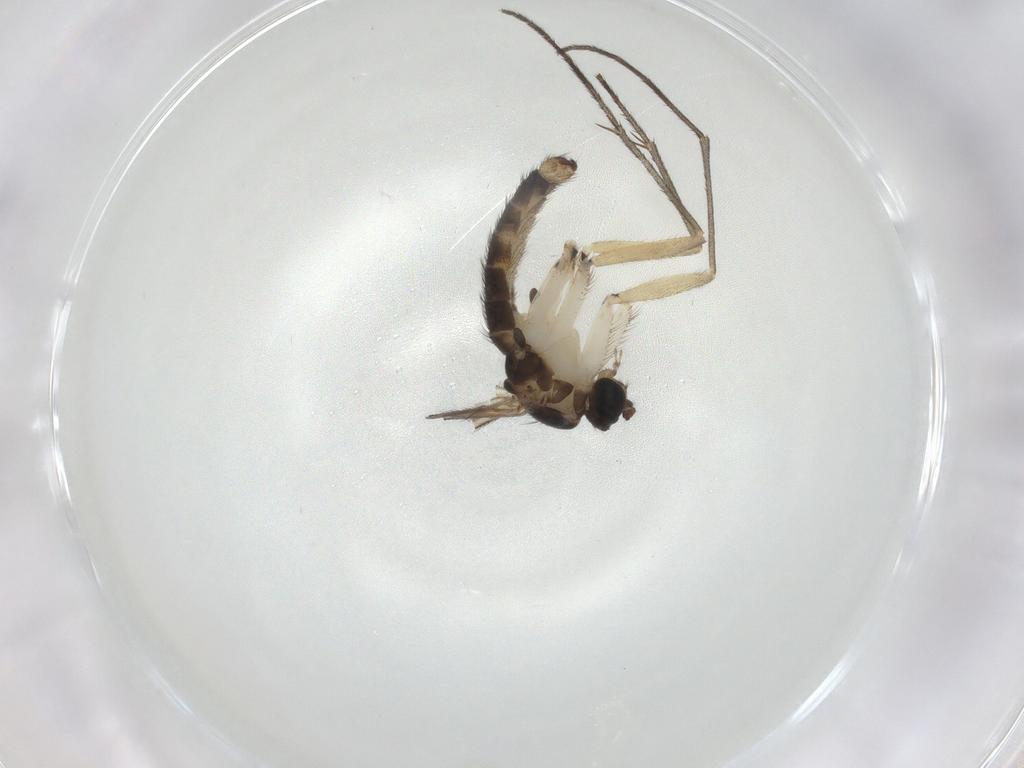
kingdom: Animalia
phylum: Arthropoda
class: Insecta
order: Diptera
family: Sciaridae
